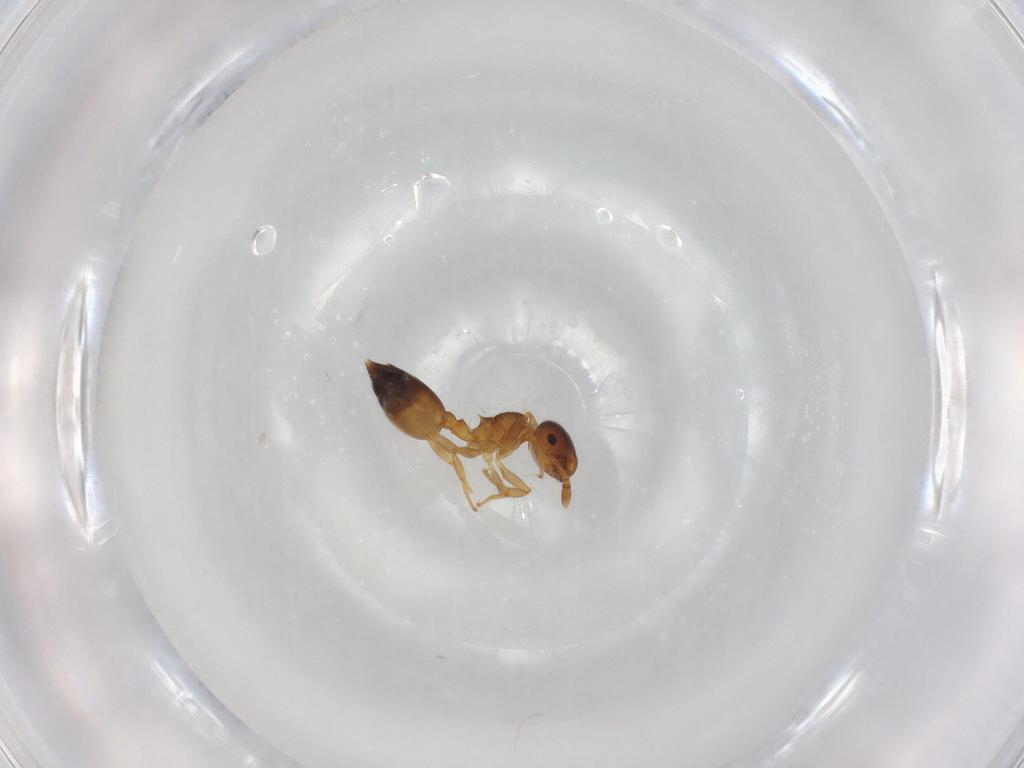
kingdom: Animalia
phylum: Arthropoda
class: Insecta
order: Hymenoptera
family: Formicidae
